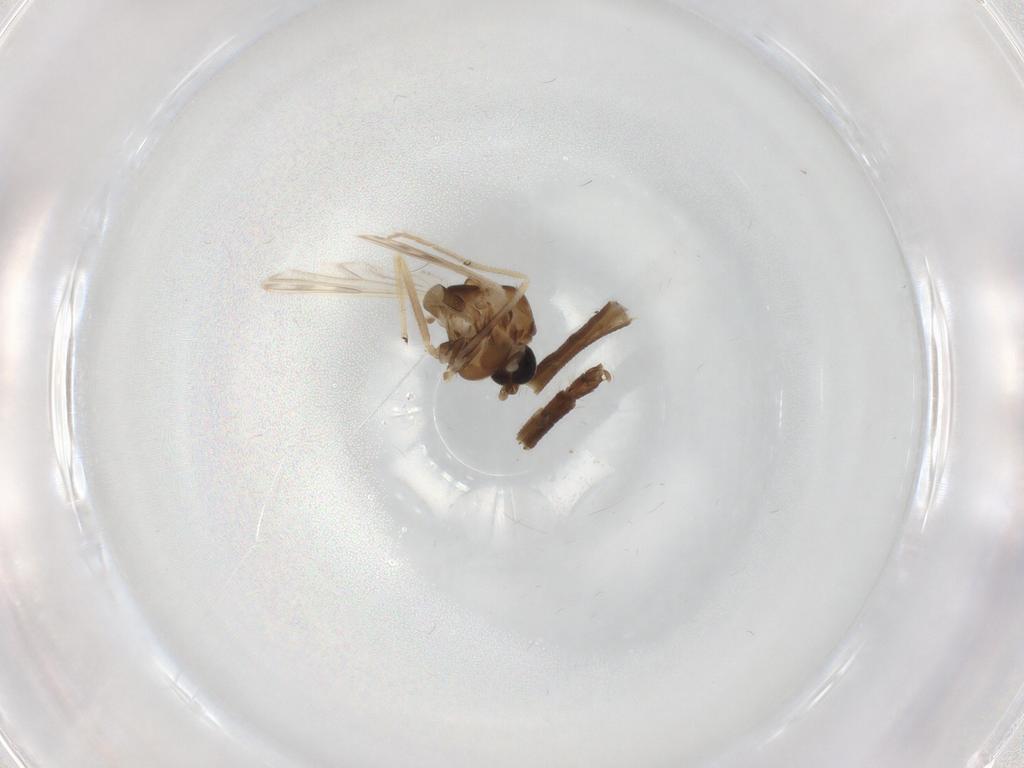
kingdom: Animalia
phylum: Arthropoda
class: Insecta
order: Diptera
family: Chironomidae
